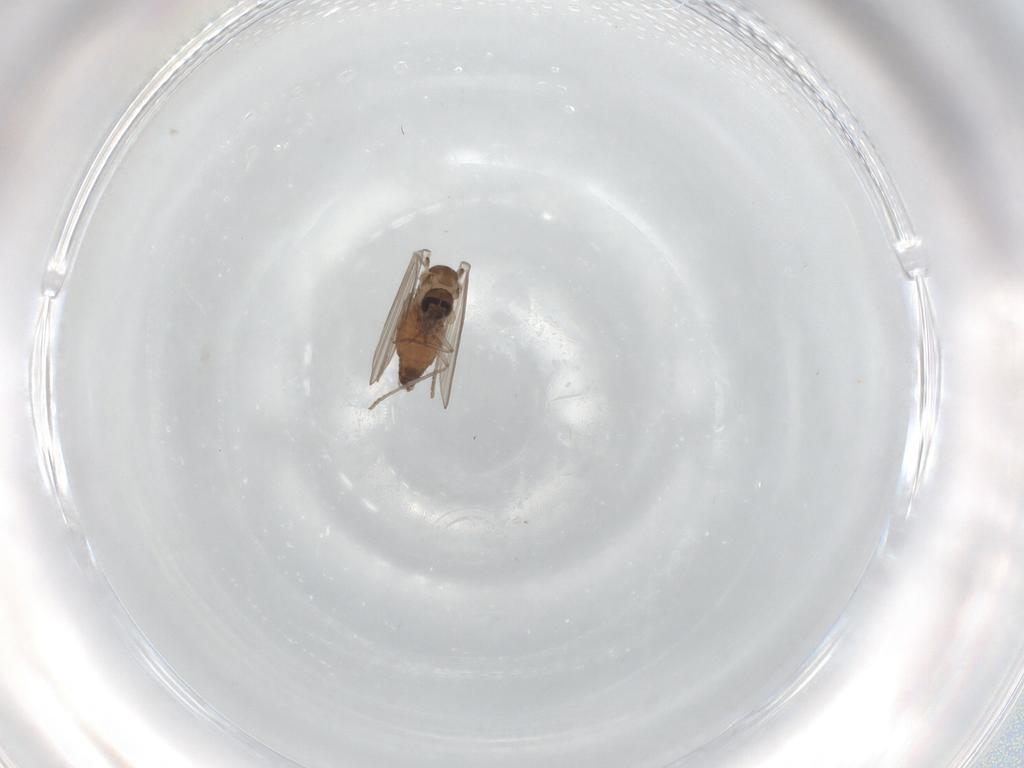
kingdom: Animalia
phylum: Arthropoda
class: Insecta
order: Diptera
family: Psychodidae
